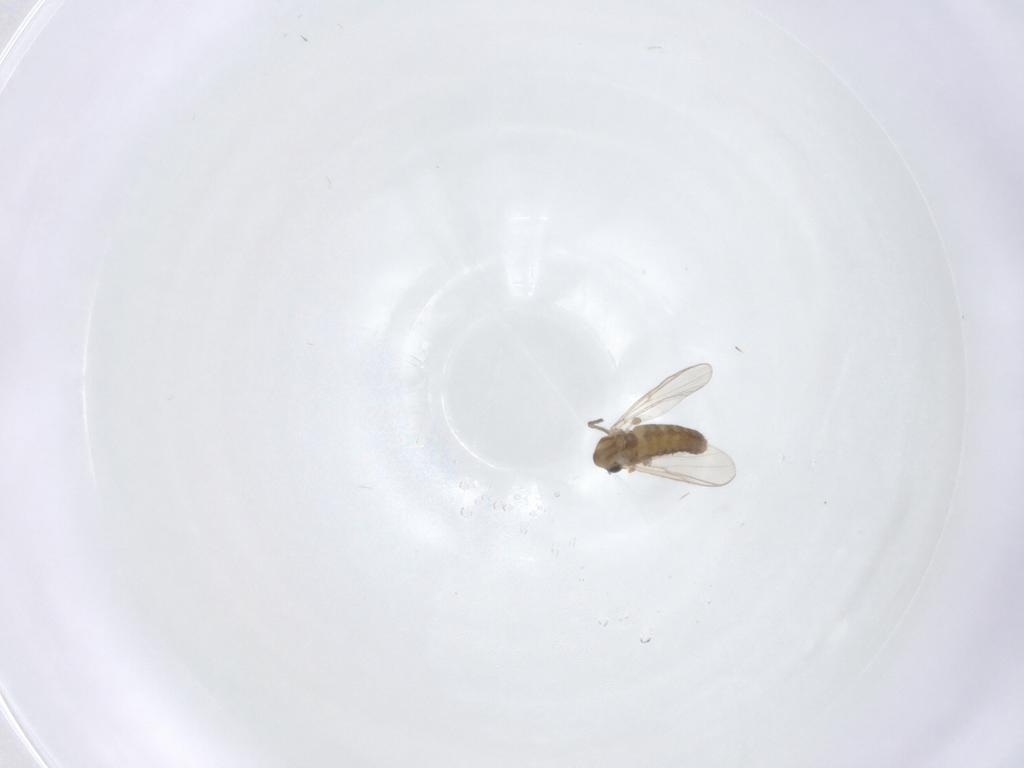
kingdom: Animalia
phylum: Arthropoda
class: Insecta
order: Diptera
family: Chironomidae
